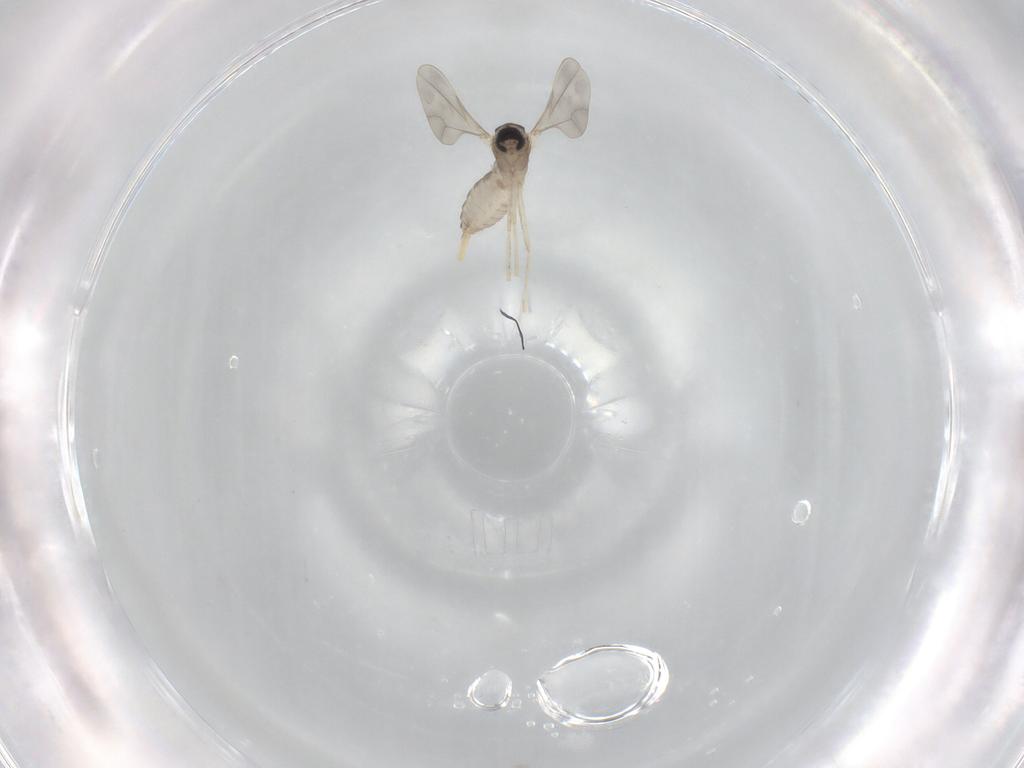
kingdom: Animalia
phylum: Arthropoda
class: Insecta
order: Diptera
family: Cecidomyiidae
